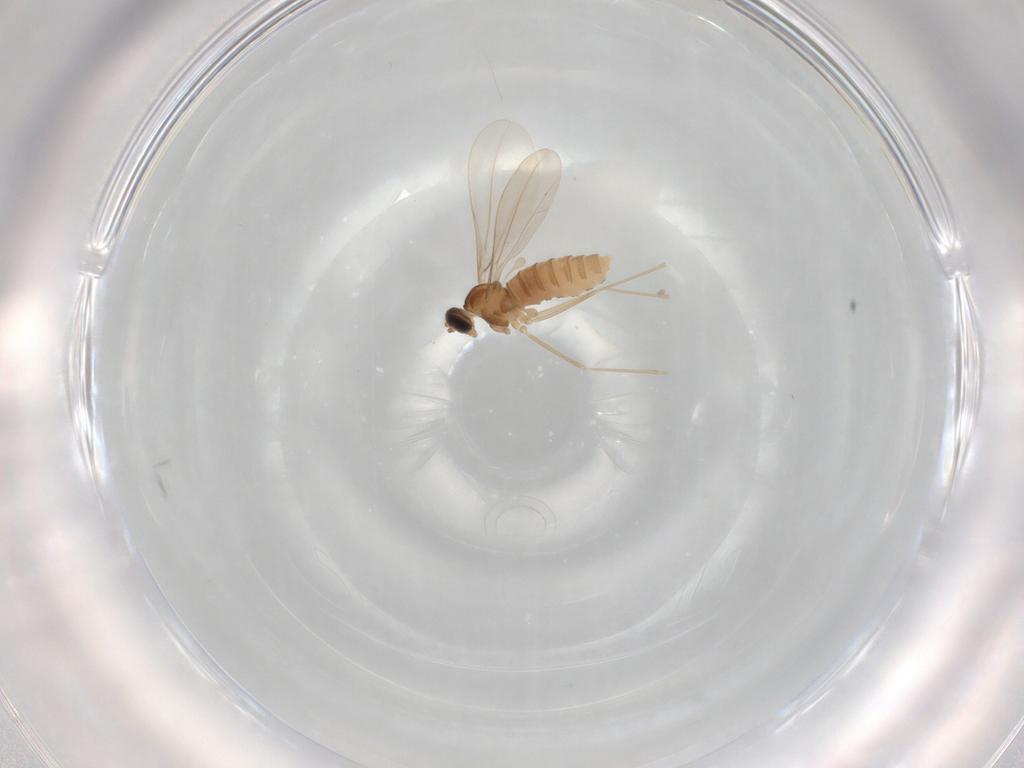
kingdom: Animalia
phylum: Arthropoda
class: Insecta
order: Diptera
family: Cecidomyiidae
